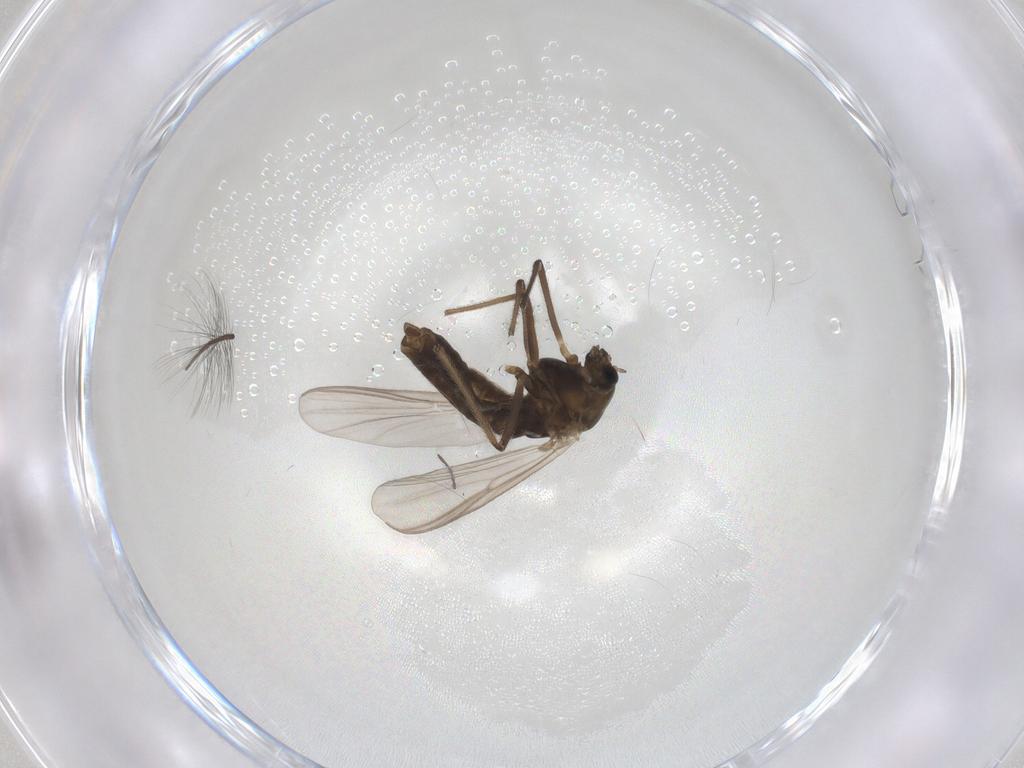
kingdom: Animalia
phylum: Arthropoda
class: Insecta
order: Diptera
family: Chironomidae
